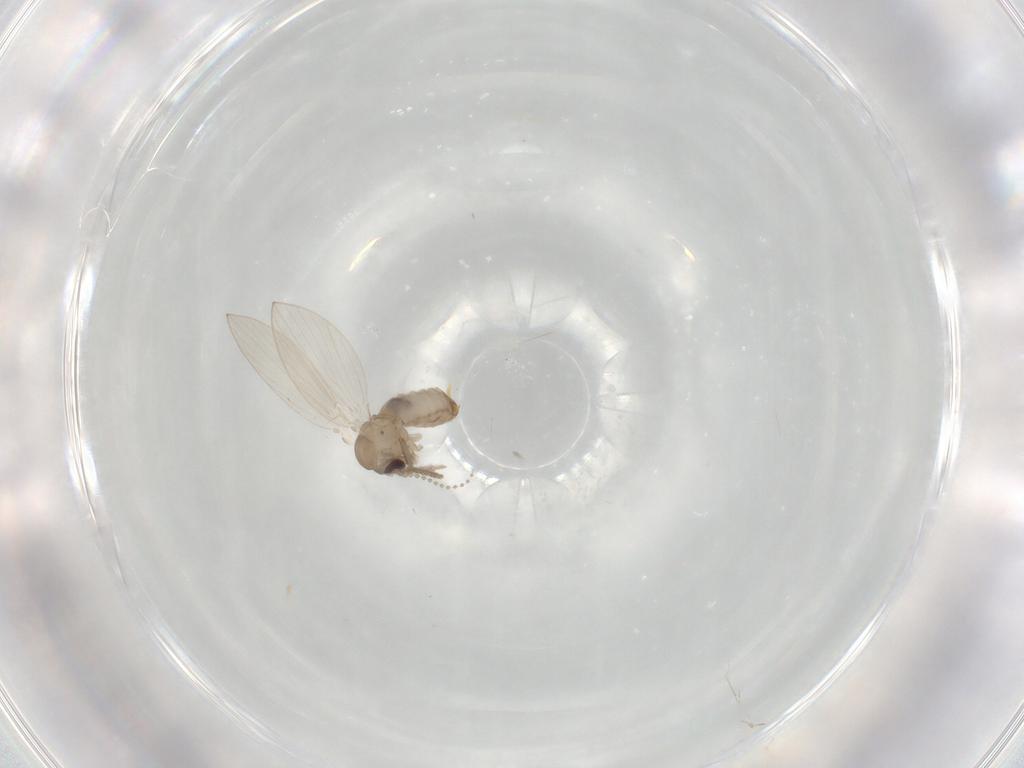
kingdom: Animalia
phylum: Arthropoda
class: Insecta
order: Diptera
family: Psychodidae
